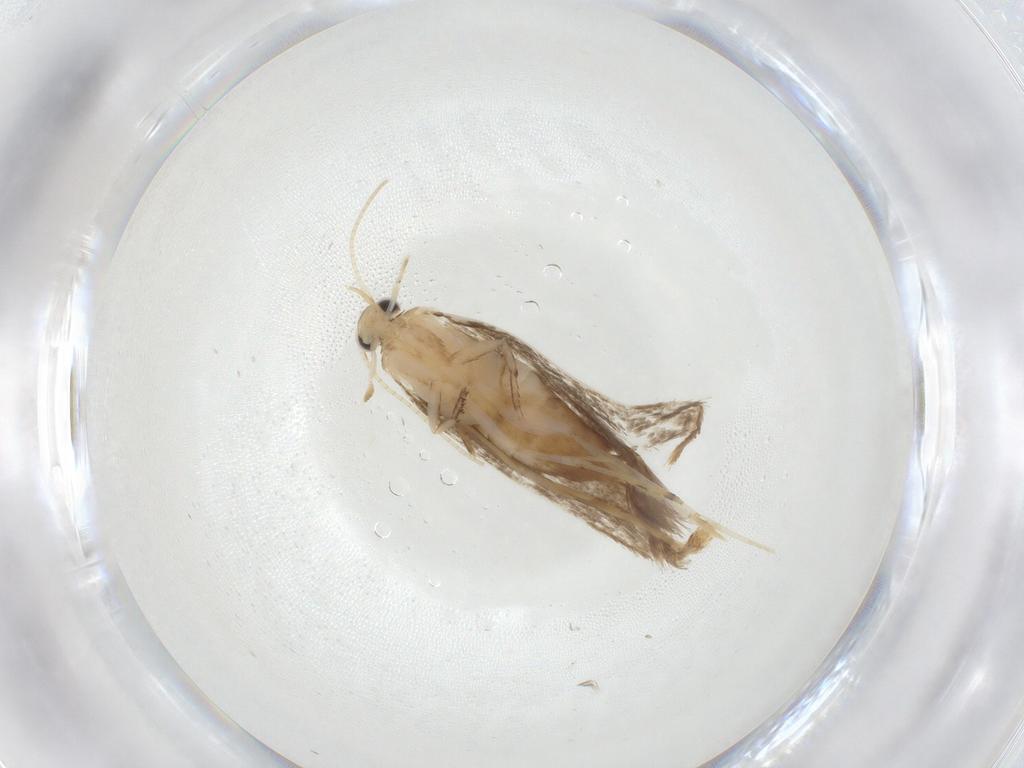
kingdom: Animalia
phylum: Arthropoda
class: Insecta
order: Lepidoptera
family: Dryadaulidae
